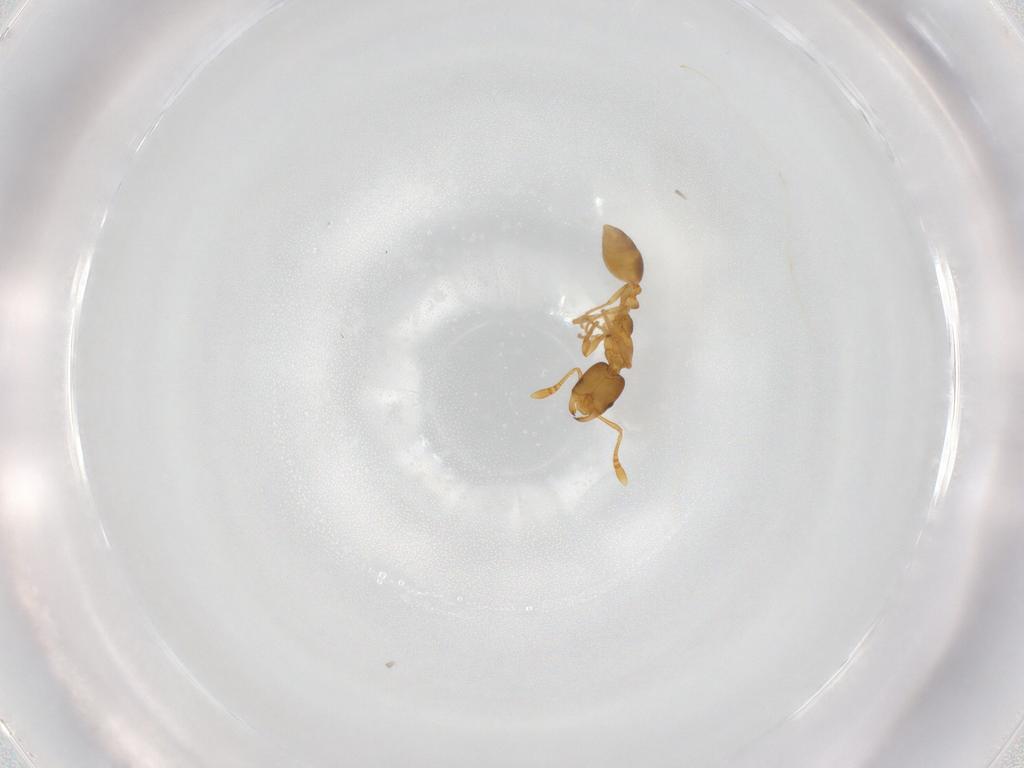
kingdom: Animalia
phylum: Arthropoda
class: Insecta
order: Hymenoptera
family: Formicidae
